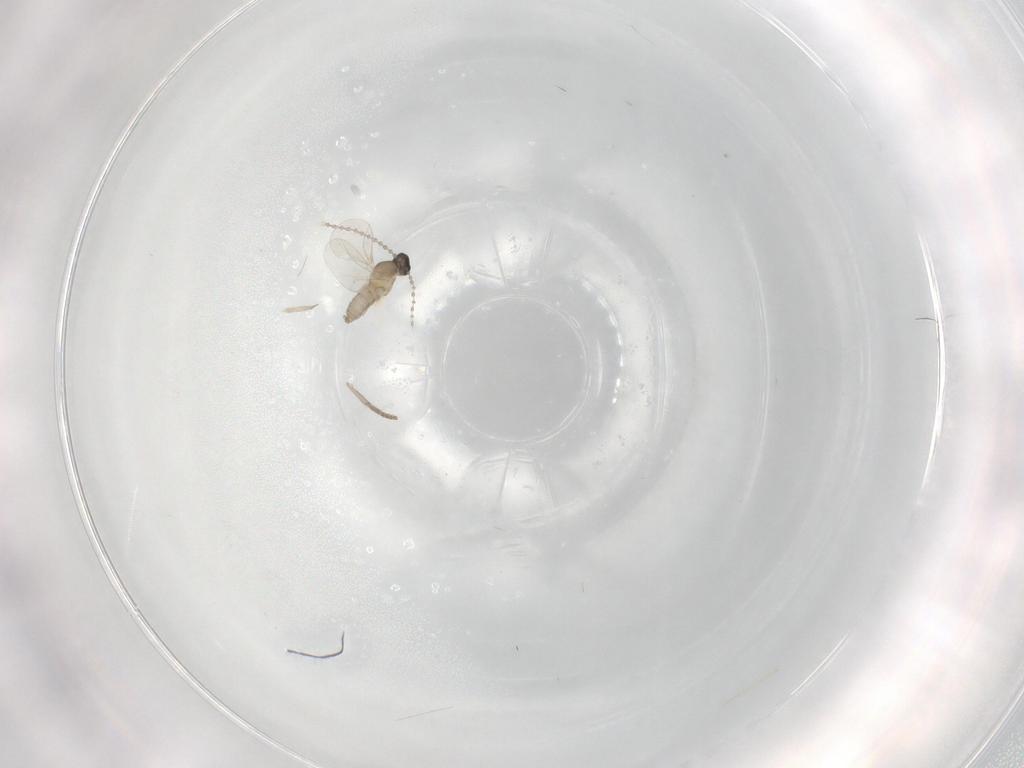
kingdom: Animalia
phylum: Arthropoda
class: Insecta
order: Diptera
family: Cecidomyiidae
